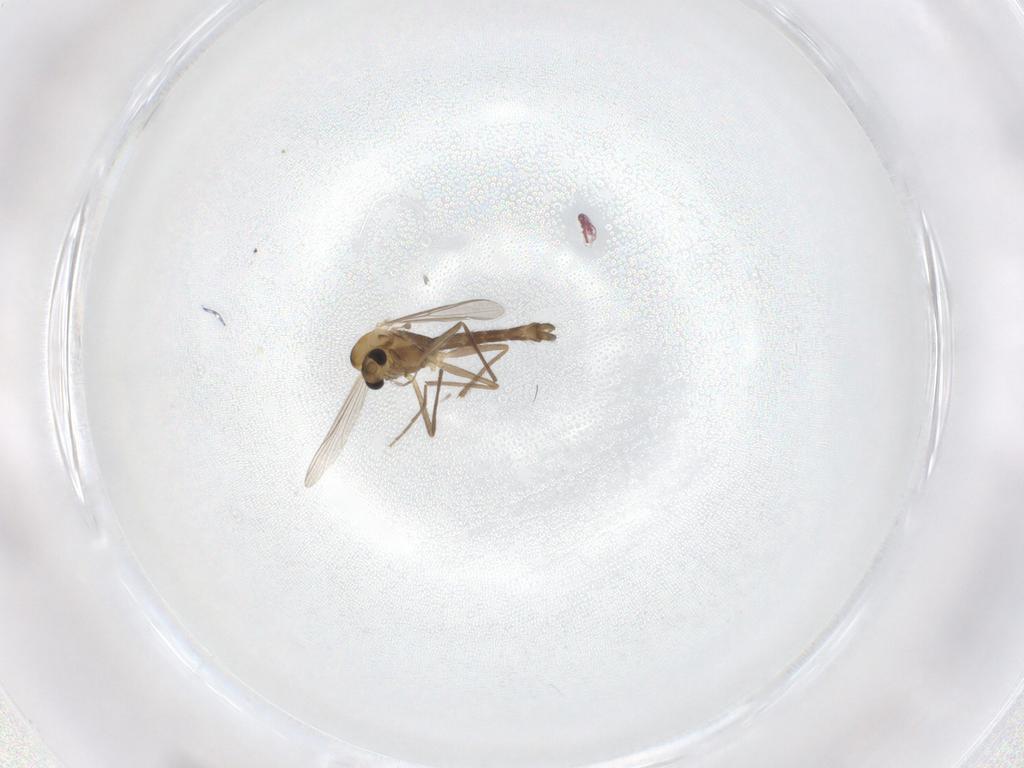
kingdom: Animalia
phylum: Arthropoda
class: Insecta
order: Diptera
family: Chironomidae
